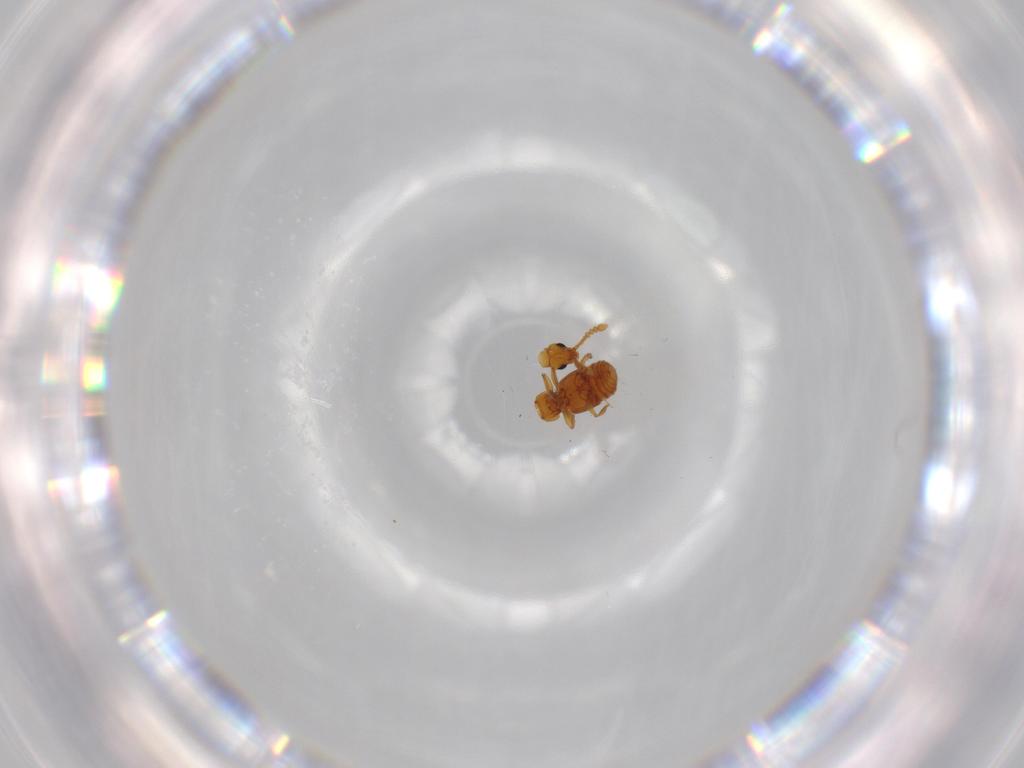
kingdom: Animalia
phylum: Arthropoda
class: Insecta
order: Coleoptera
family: Staphylinidae
